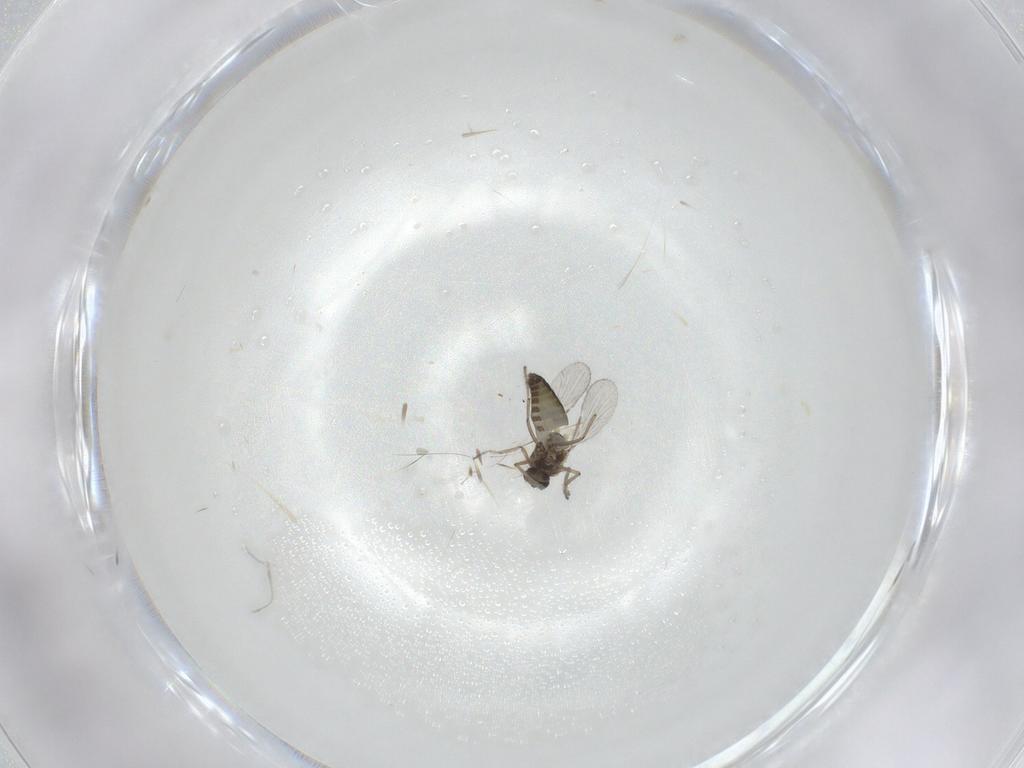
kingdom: Animalia
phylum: Arthropoda
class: Insecta
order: Diptera
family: Ceratopogonidae
